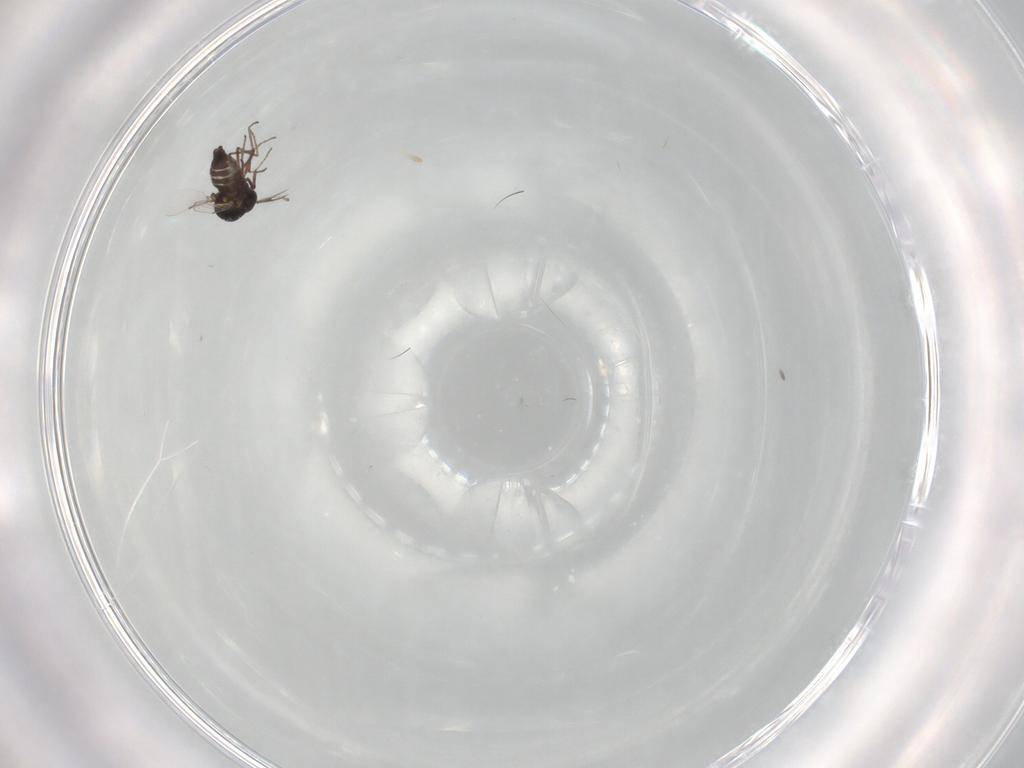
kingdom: Animalia
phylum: Arthropoda
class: Insecta
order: Diptera
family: Ceratopogonidae
